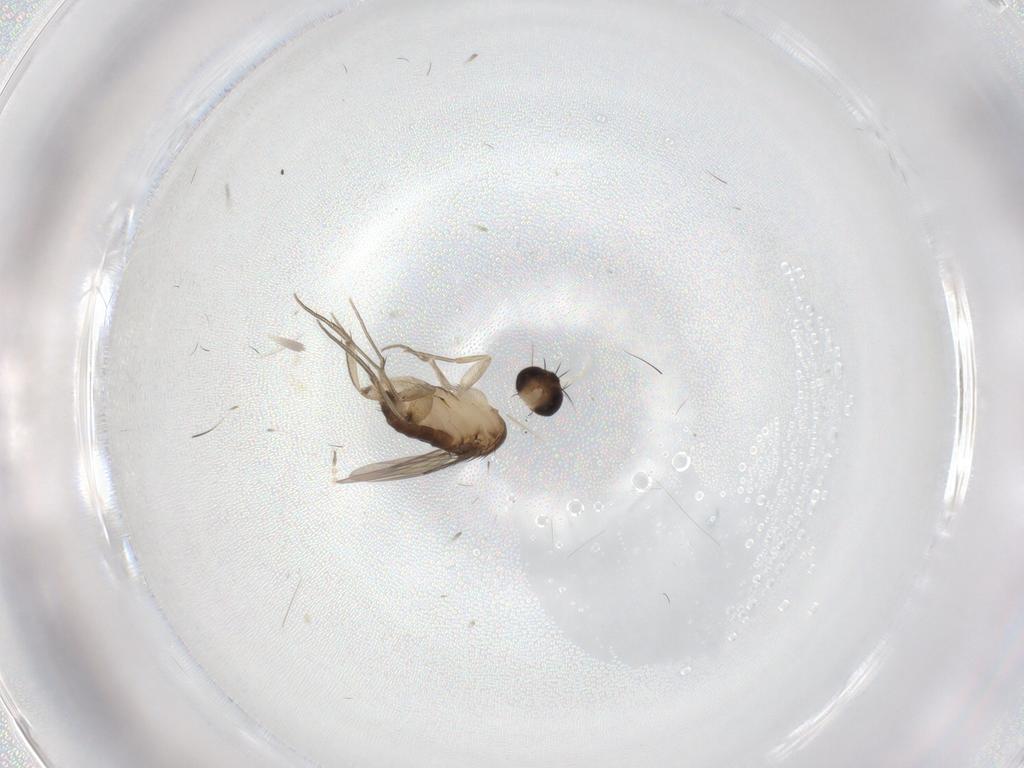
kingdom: Animalia
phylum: Arthropoda
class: Insecta
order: Diptera
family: Phoridae
